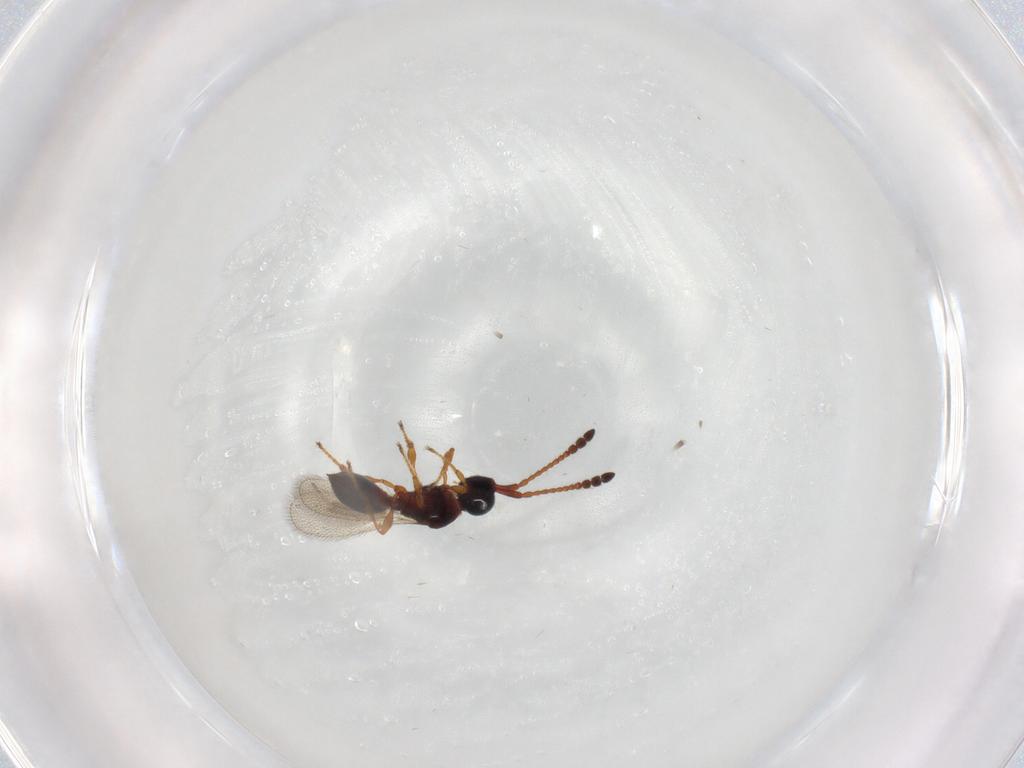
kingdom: Animalia
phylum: Arthropoda
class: Insecta
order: Hymenoptera
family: Diapriidae
